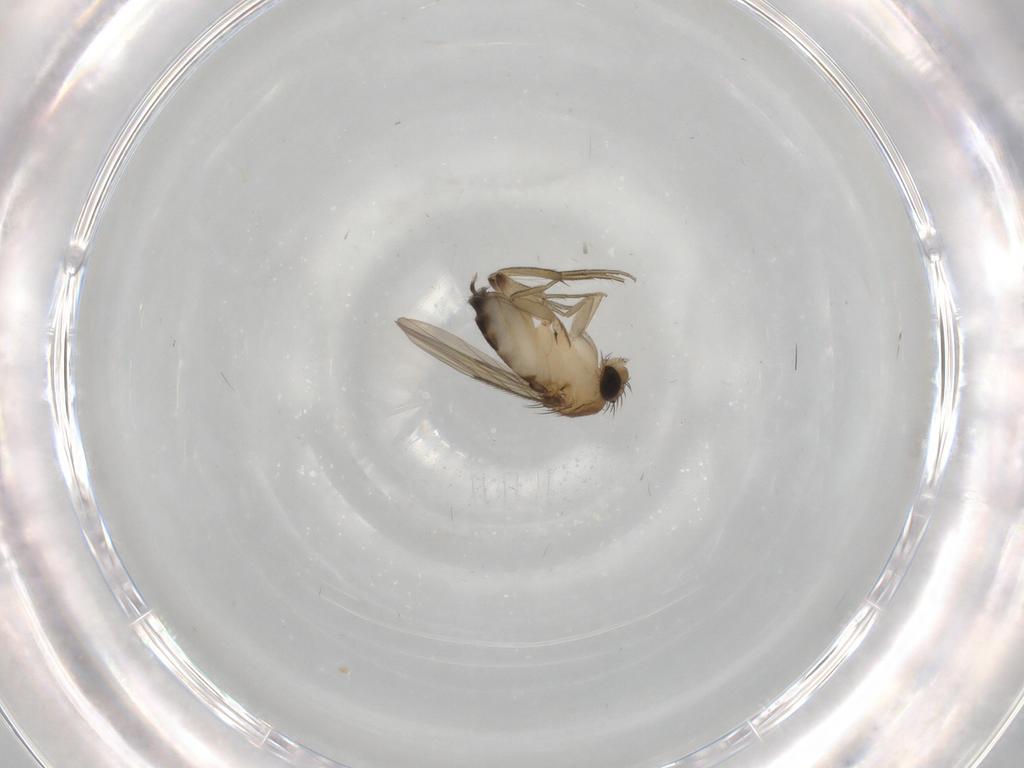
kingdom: Animalia
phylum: Arthropoda
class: Insecta
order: Diptera
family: Phoridae
